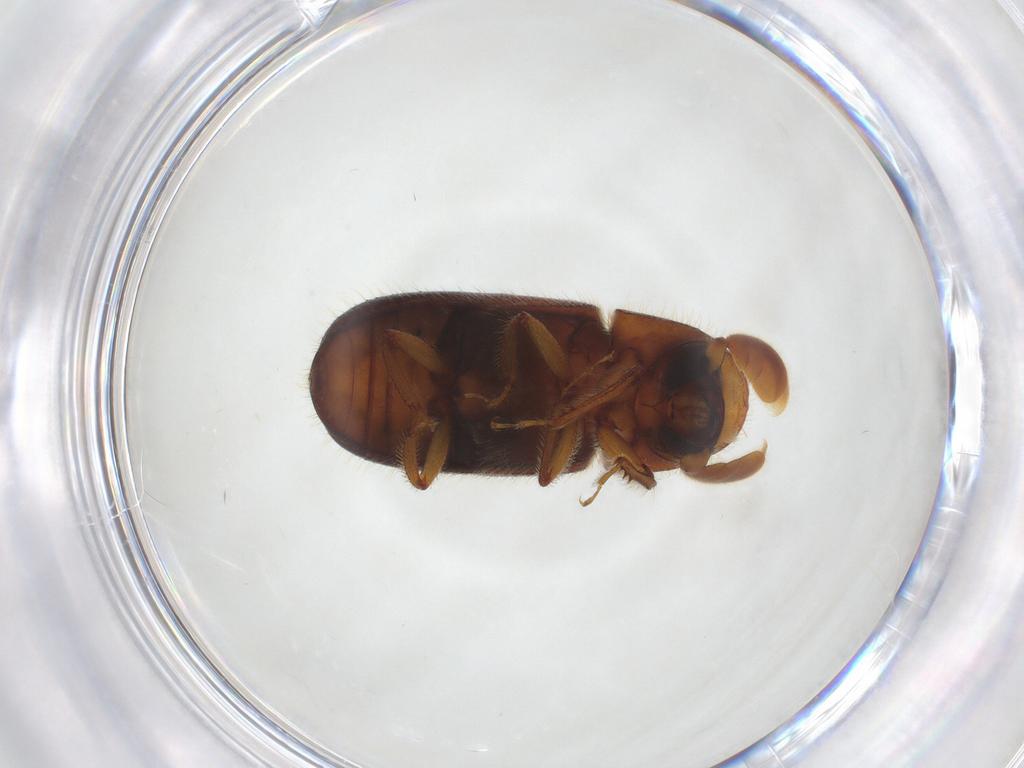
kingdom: Animalia
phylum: Arthropoda
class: Insecta
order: Coleoptera
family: Curculionidae
